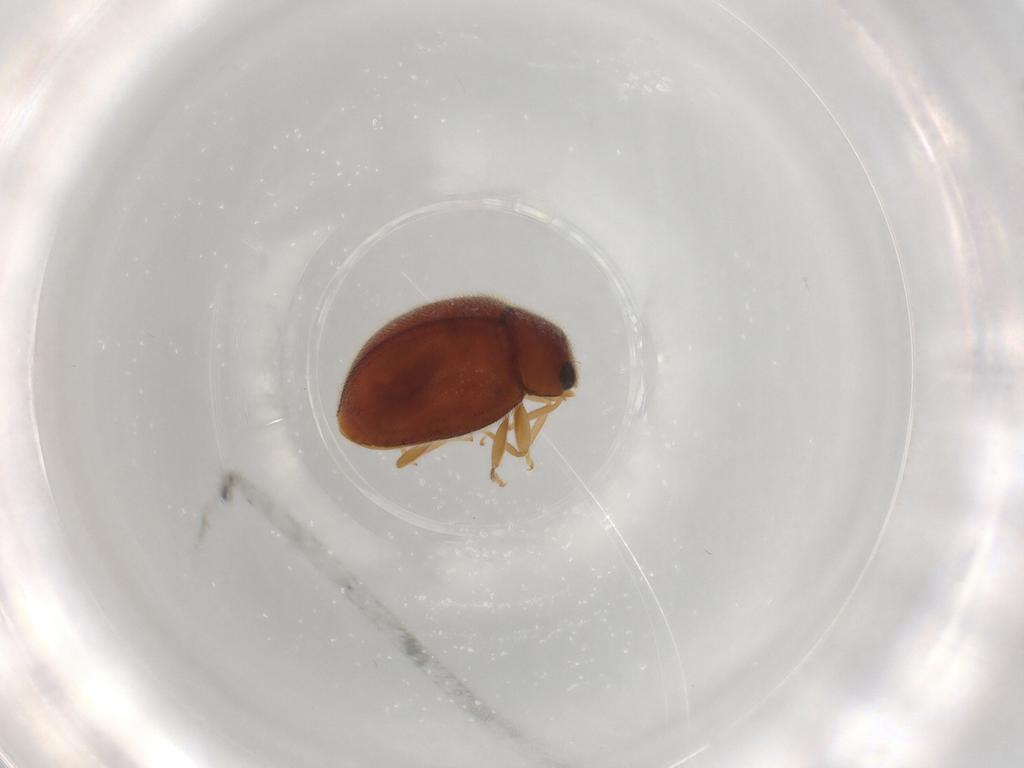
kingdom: Animalia
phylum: Arthropoda
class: Insecta
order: Coleoptera
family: Coccinellidae
